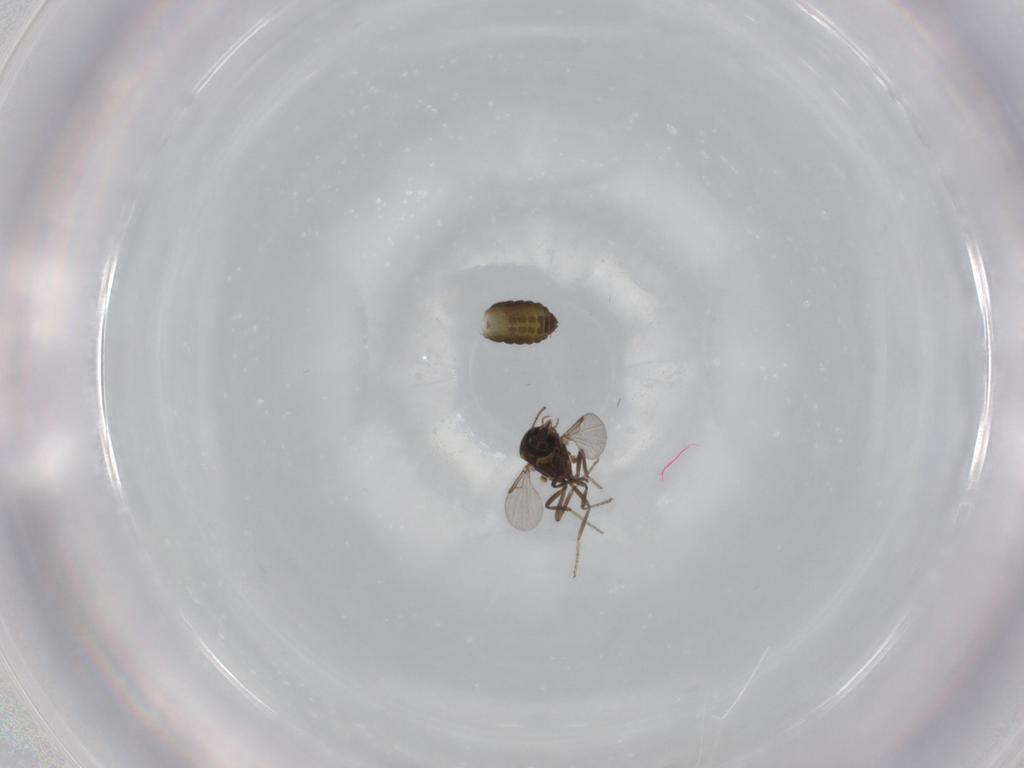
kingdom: Animalia
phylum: Arthropoda
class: Insecta
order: Diptera
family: Ceratopogonidae
